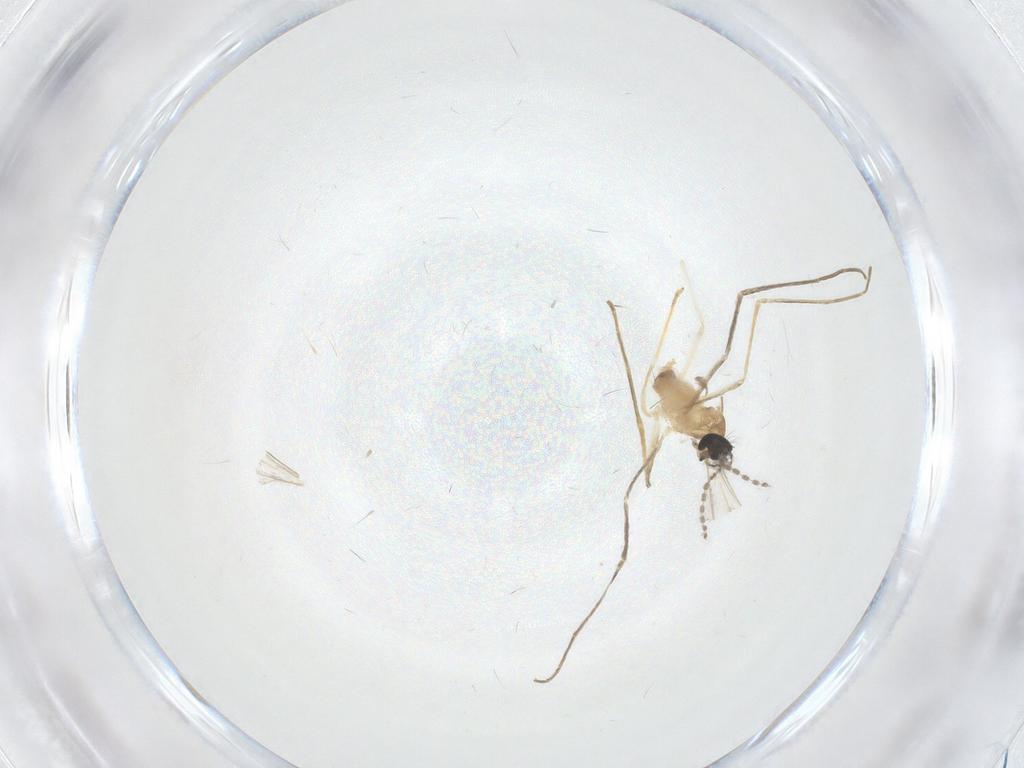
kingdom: Animalia
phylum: Arthropoda
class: Insecta
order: Diptera
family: Cecidomyiidae
